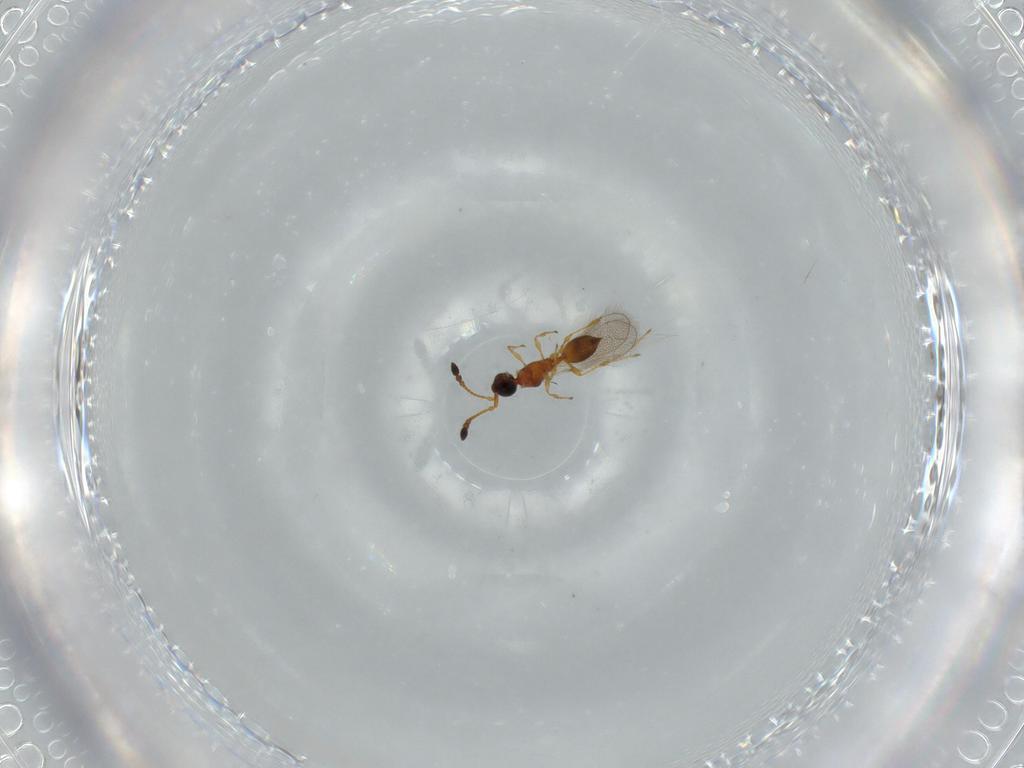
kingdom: Animalia
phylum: Arthropoda
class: Insecta
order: Hymenoptera
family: Diapriidae
